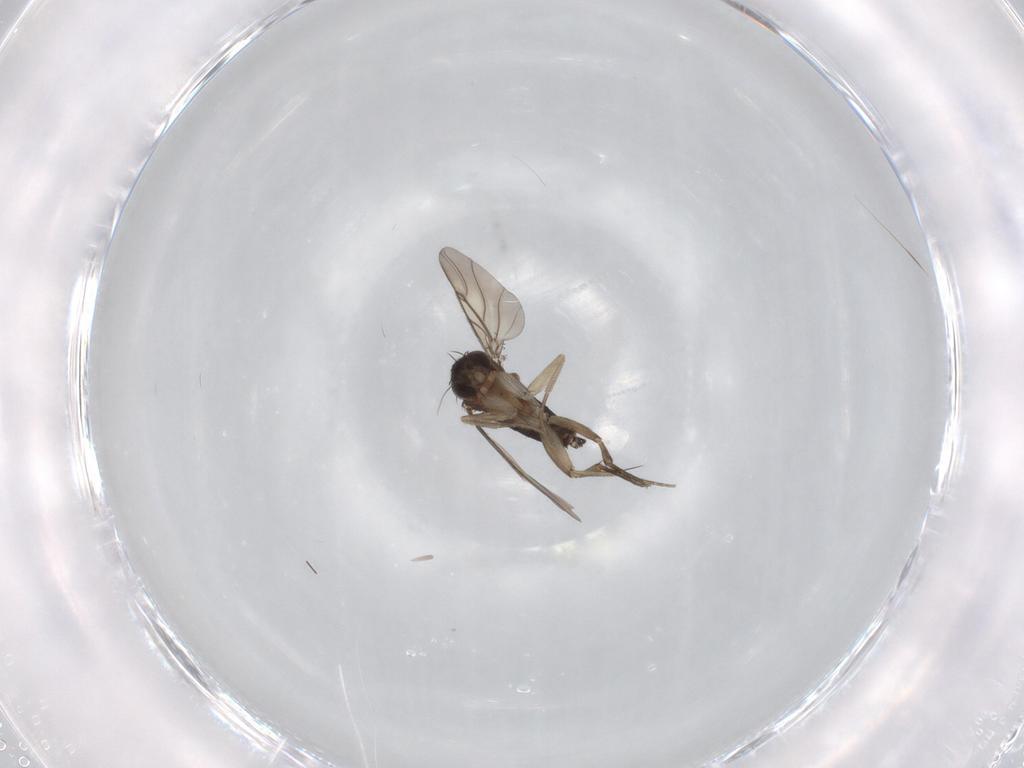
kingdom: Animalia
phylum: Arthropoda
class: Insecta
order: Diptera
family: Phoridae
